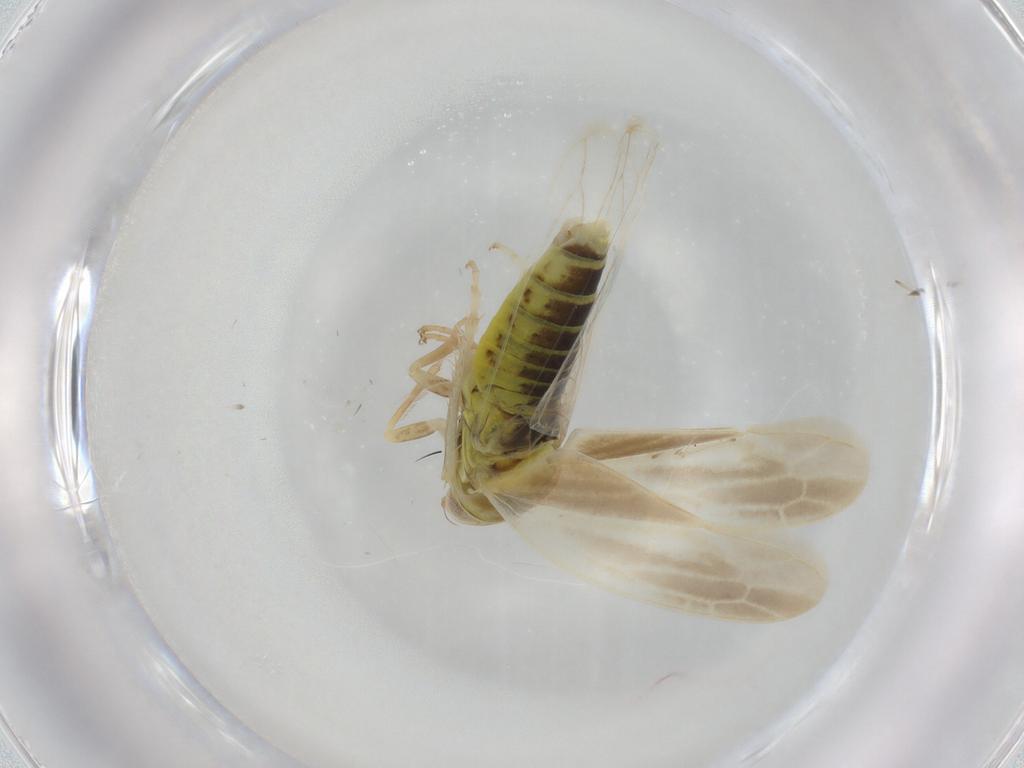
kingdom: Animalia
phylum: Arthropoda
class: Insecta
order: Hemiptera
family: Cicadellidae
